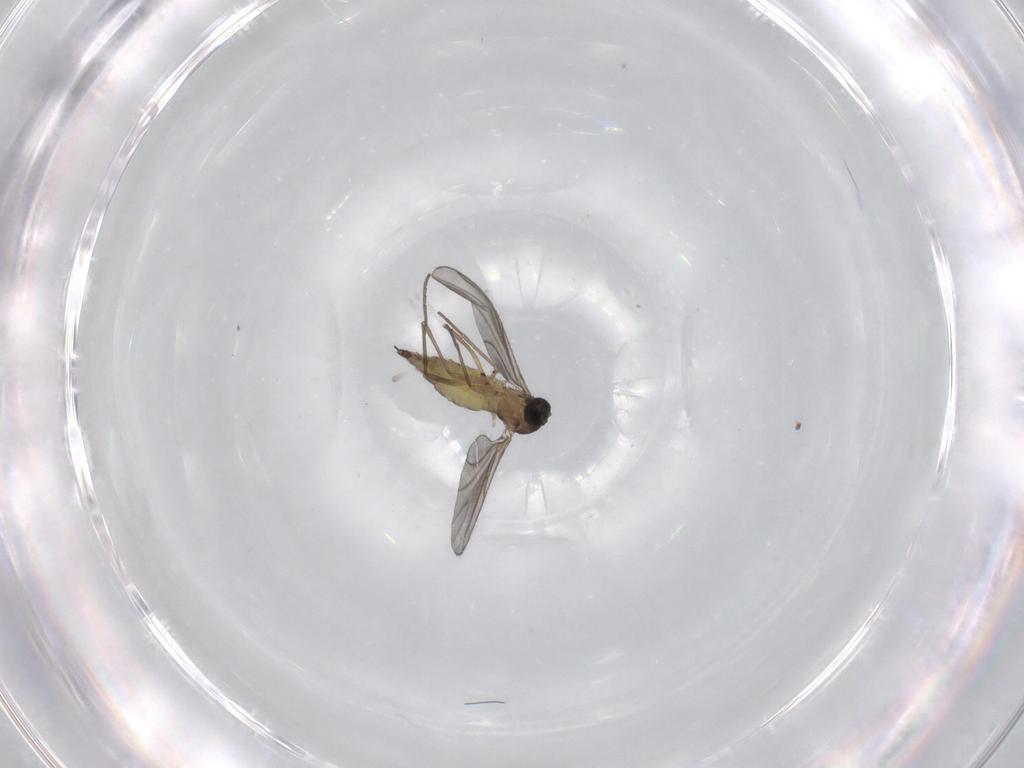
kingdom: Animalia
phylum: Arthropoda
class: Insecta
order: Diptera
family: Sciaridae
